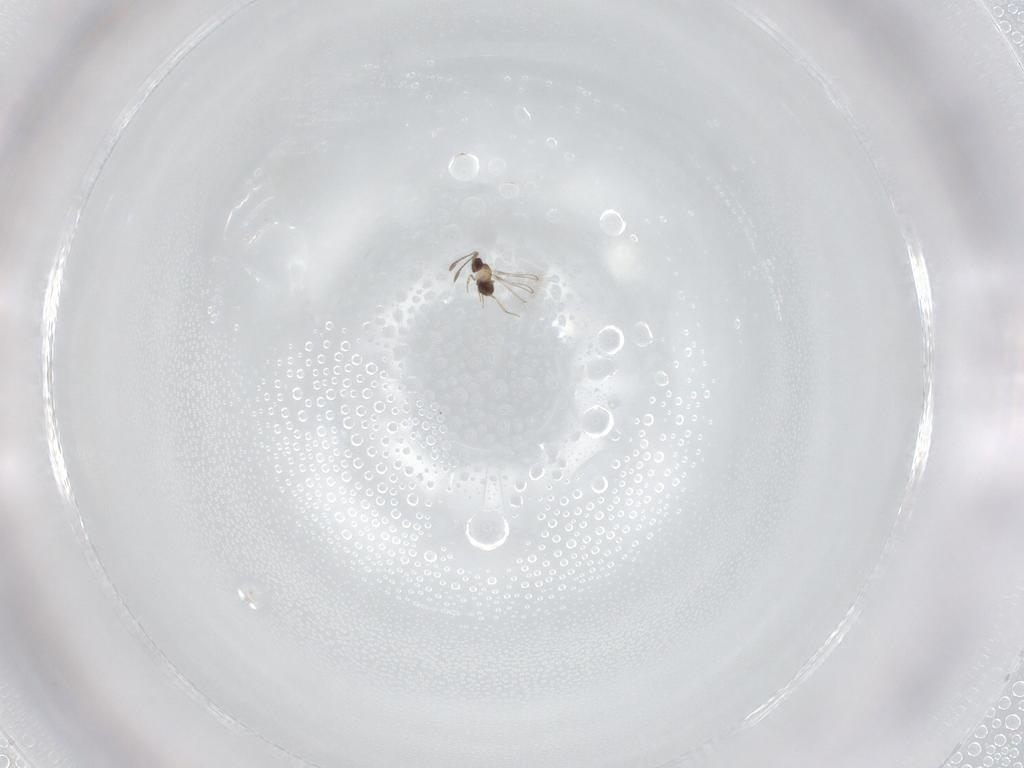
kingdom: Animalia
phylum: Arthropoda
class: Insecta
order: Hymenoptera
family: Mymaridae
